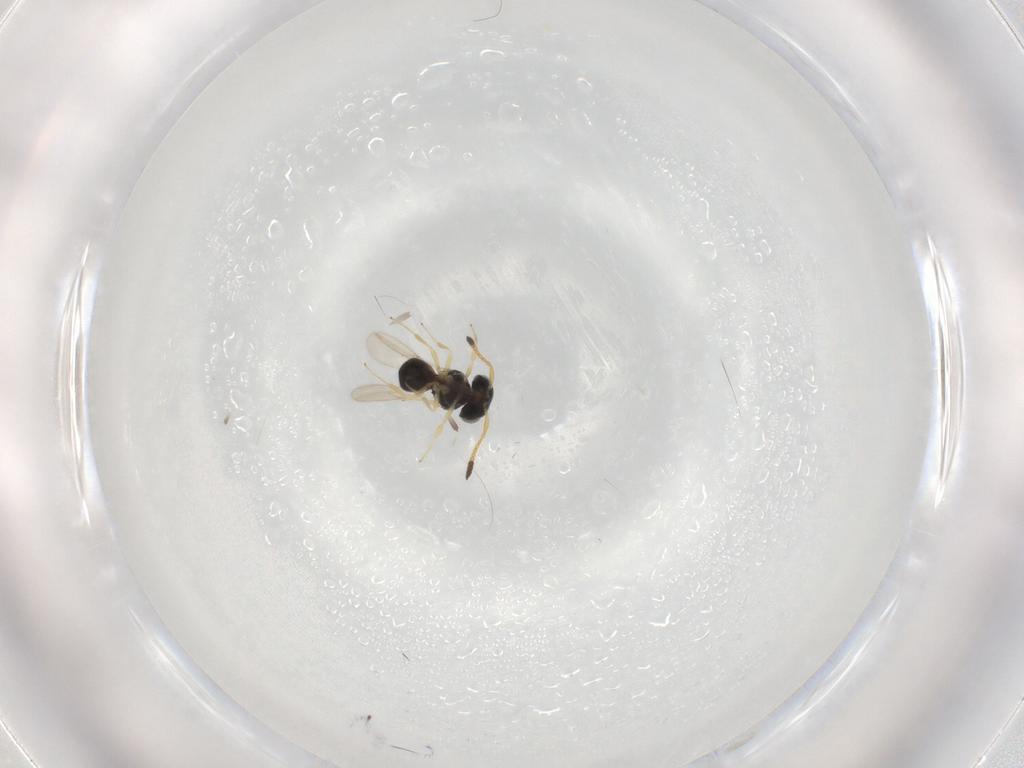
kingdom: Animalia
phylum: Arthropoda
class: Insecta
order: Hymenoptera
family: Scelionidae
